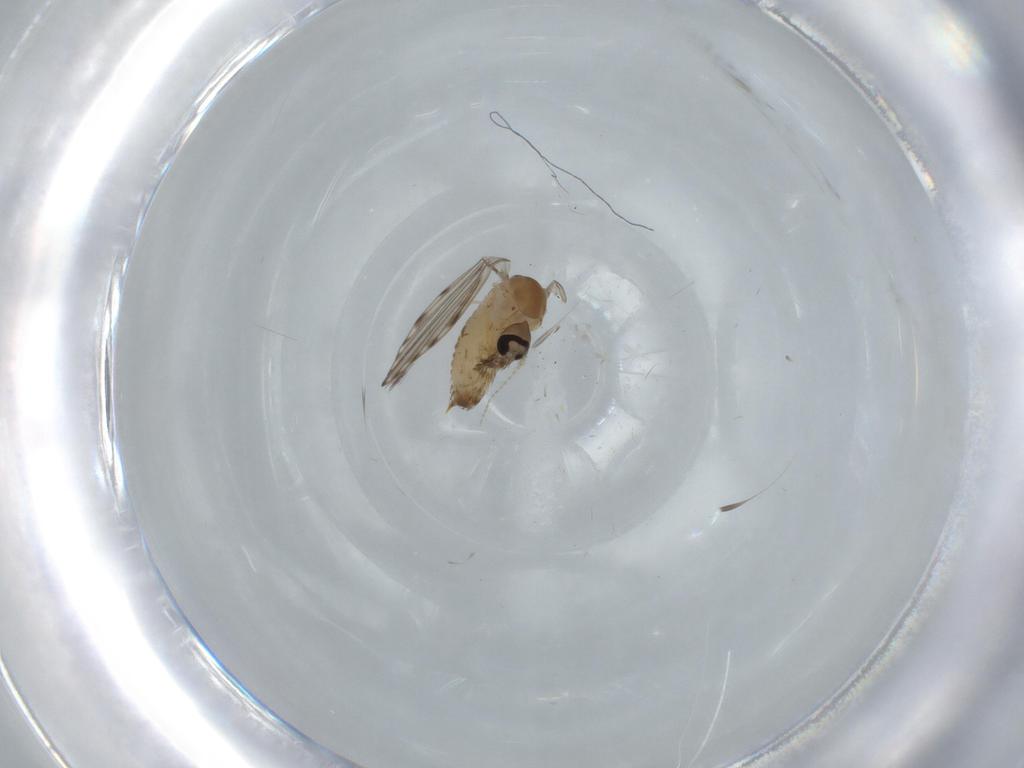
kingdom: Animalia
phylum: Arthropoda
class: Insecta
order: Diptera
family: Psychodidae
